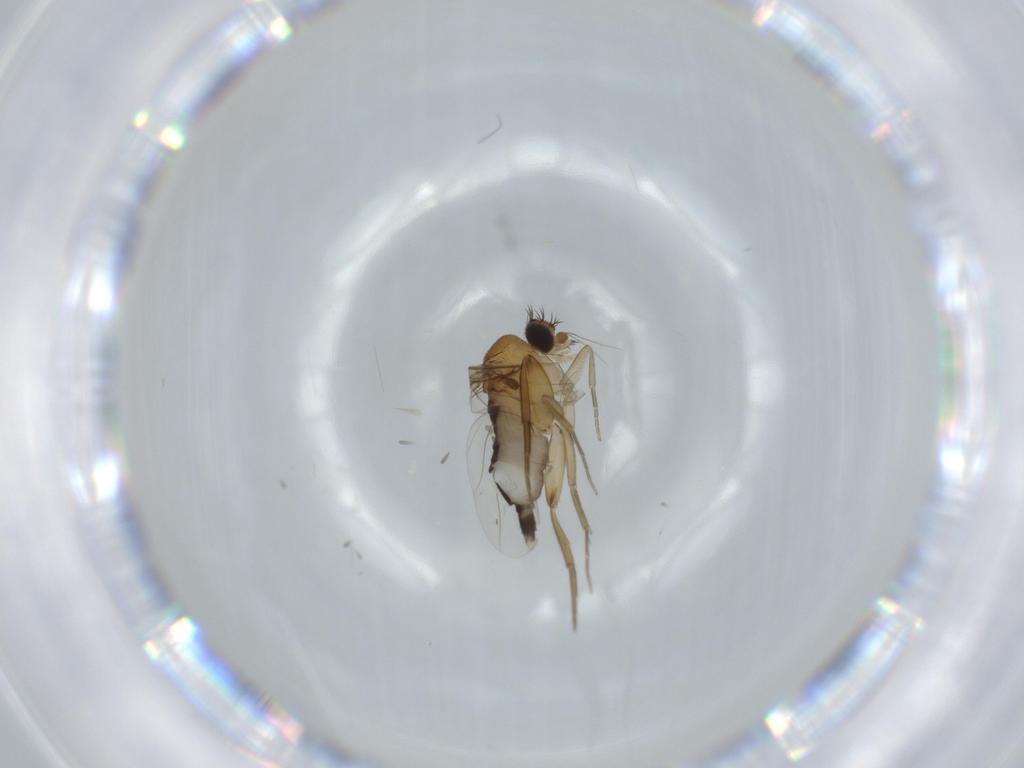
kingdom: Animalia
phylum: Arthropoda
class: Insecta
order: Diptera
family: Phoridae
